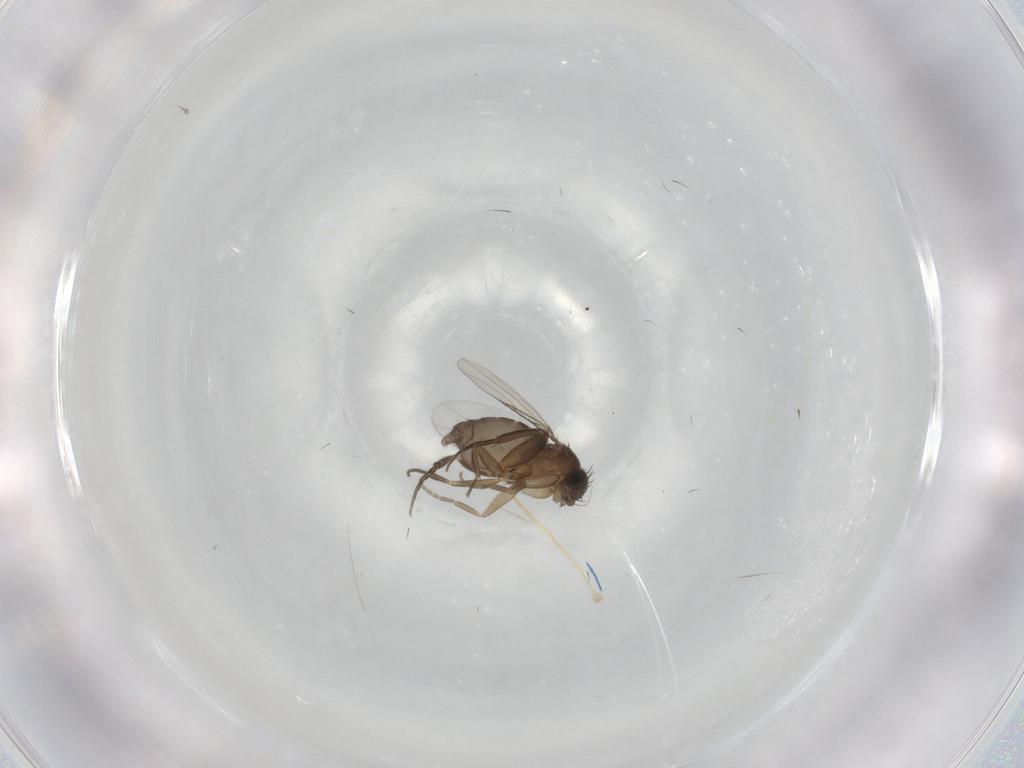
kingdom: Animalia
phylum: Arthropoda
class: Insecta
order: Diptera
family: Phoridae
